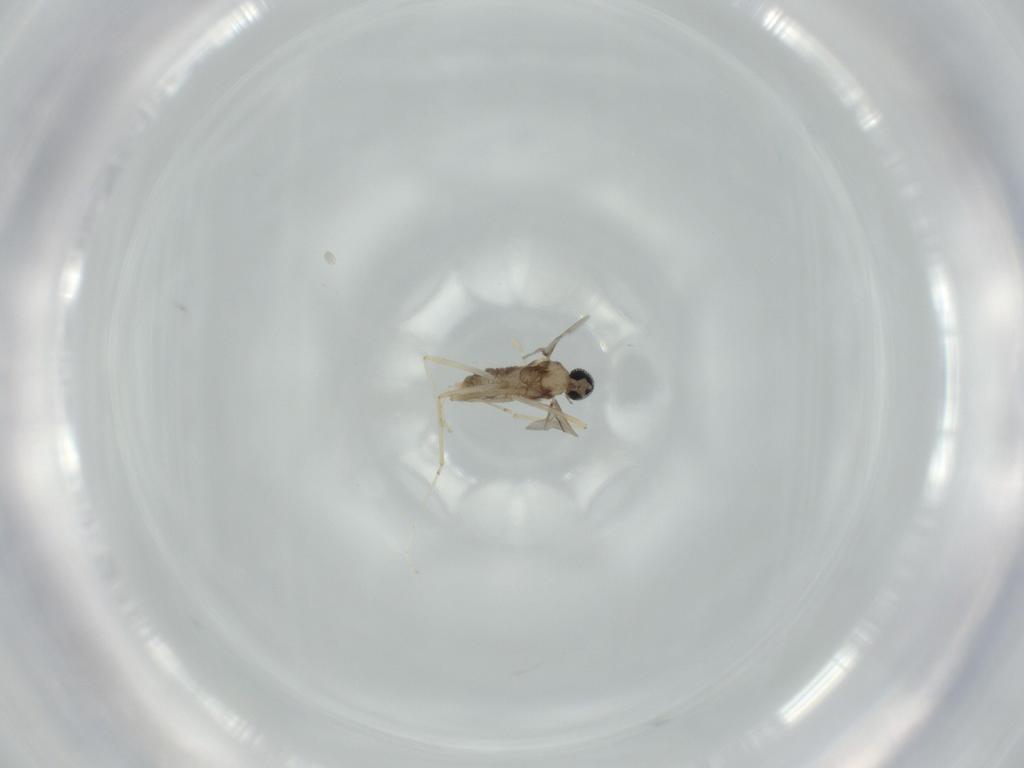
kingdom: Animalia
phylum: Arthropoda
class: Insecta
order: Diptera
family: Cecidomyiidae
